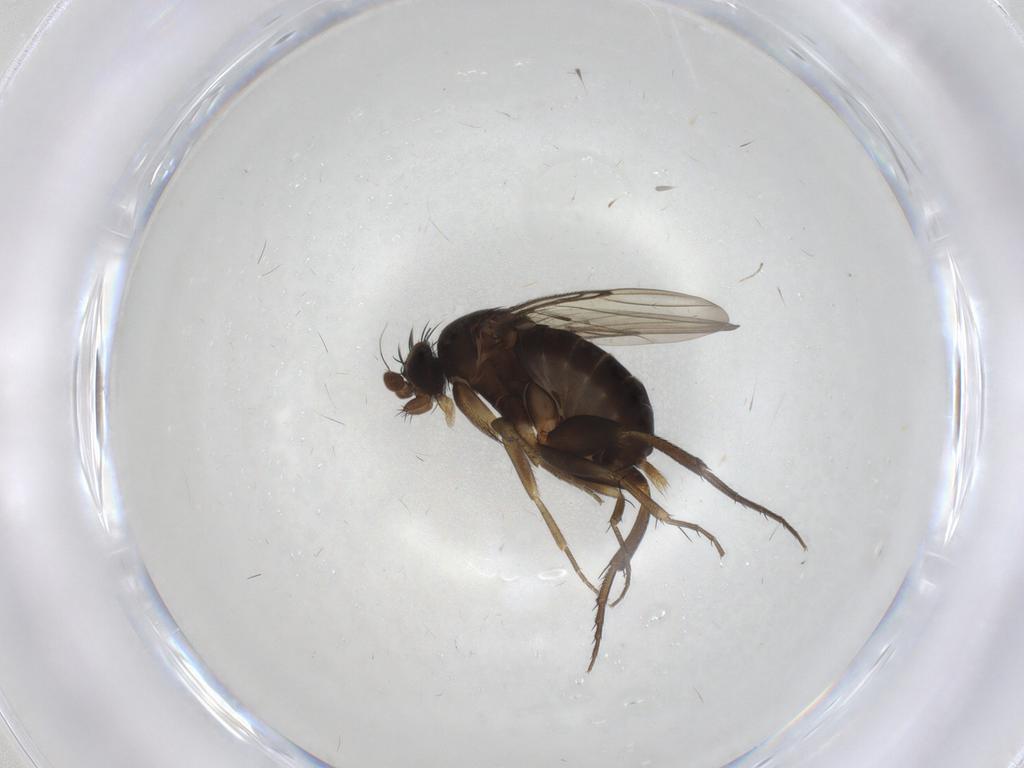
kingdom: Animalia
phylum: Arthropoda
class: Insecta
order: Diptera
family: Phoridae
